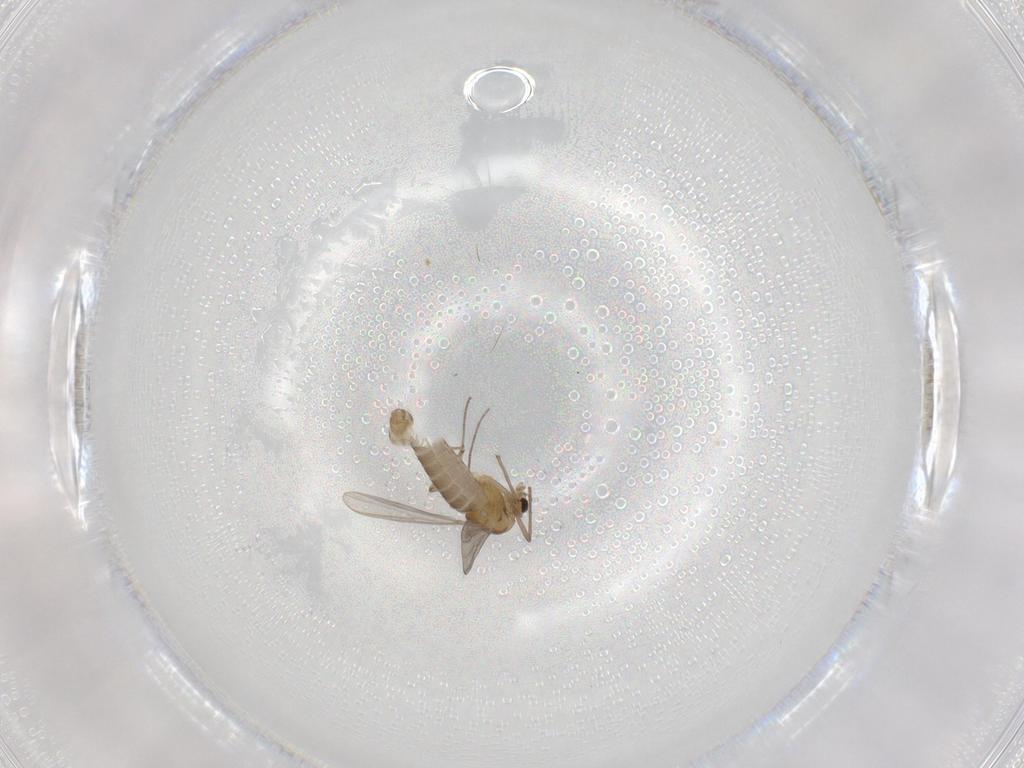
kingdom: Animalia
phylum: Arthropoda
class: Insecta
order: Diptera
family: Chironomidae
